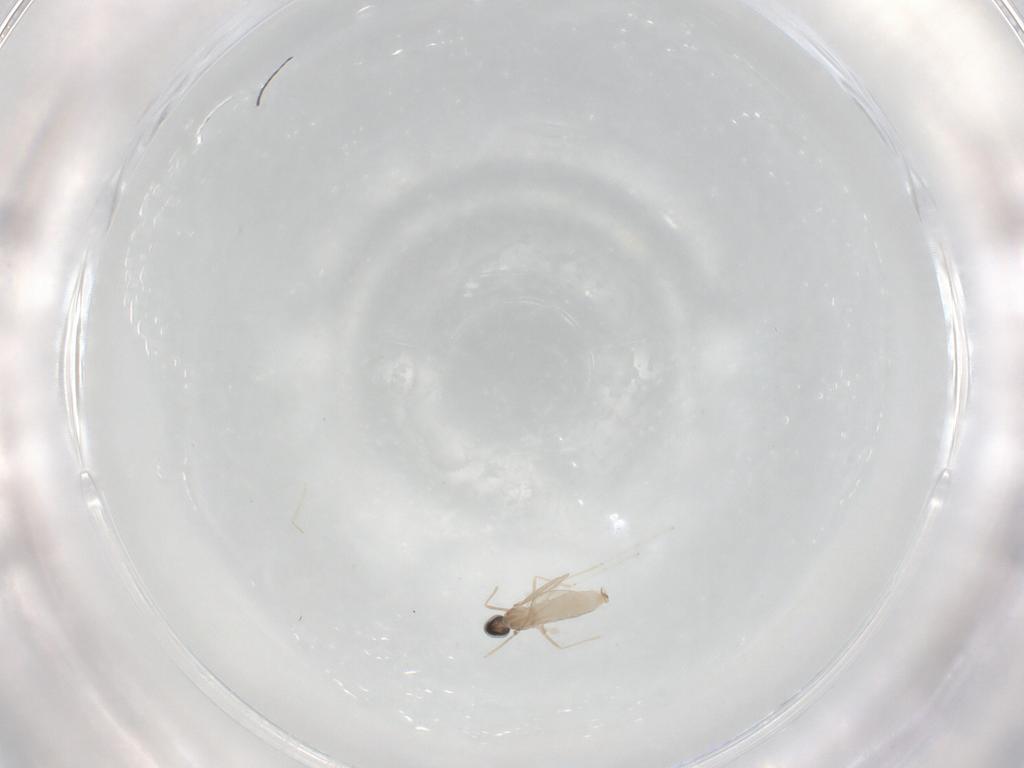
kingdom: Animalia
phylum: Arthropoda
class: Insecta
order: Diptera
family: Cecidomyiidae
